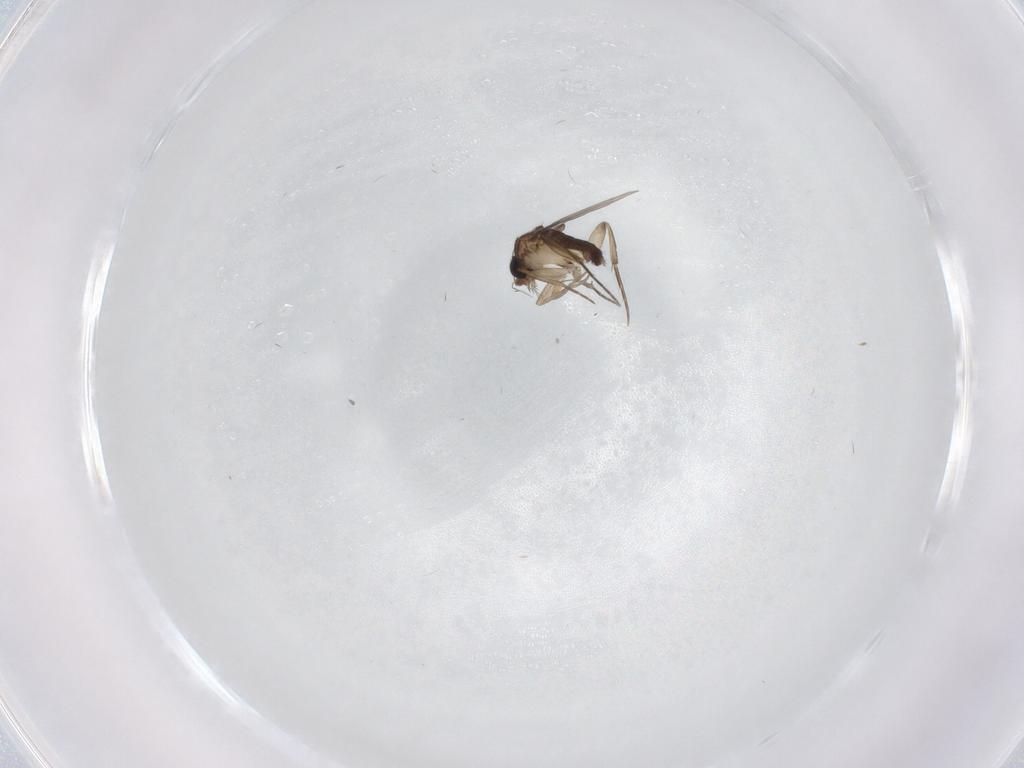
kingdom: Animalia
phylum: Arthropoda
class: Insecta
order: Diptera
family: Phoridae
